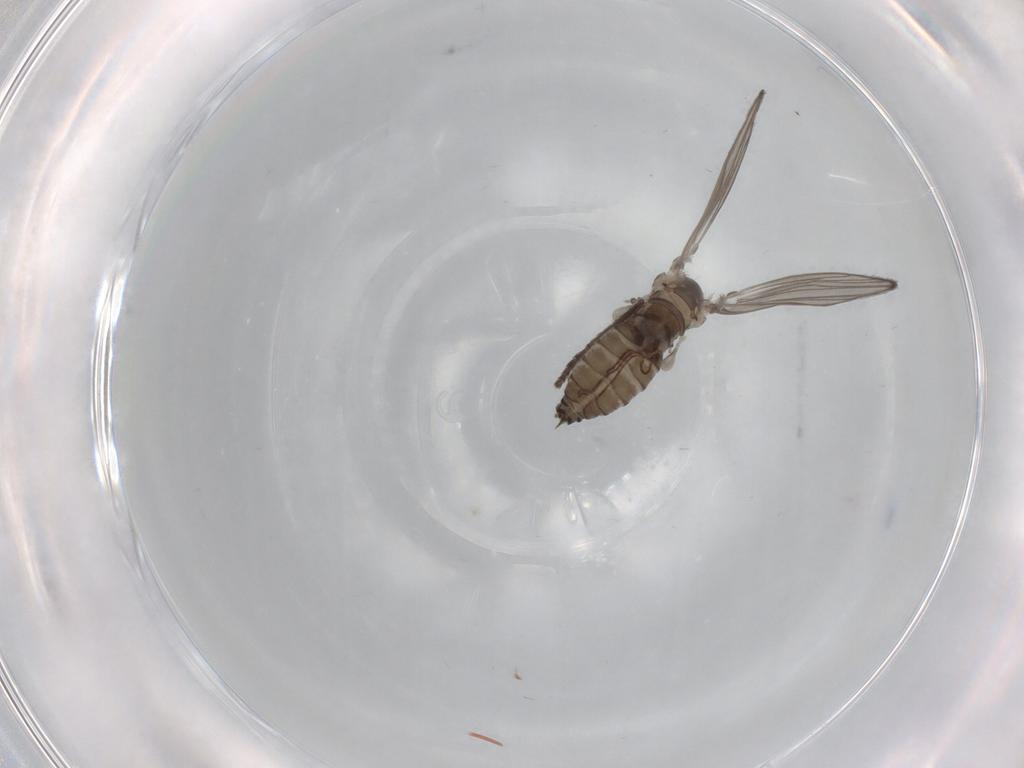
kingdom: Animalia
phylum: Arthropoda
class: Insecta
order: Diptera
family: Psychodidae
